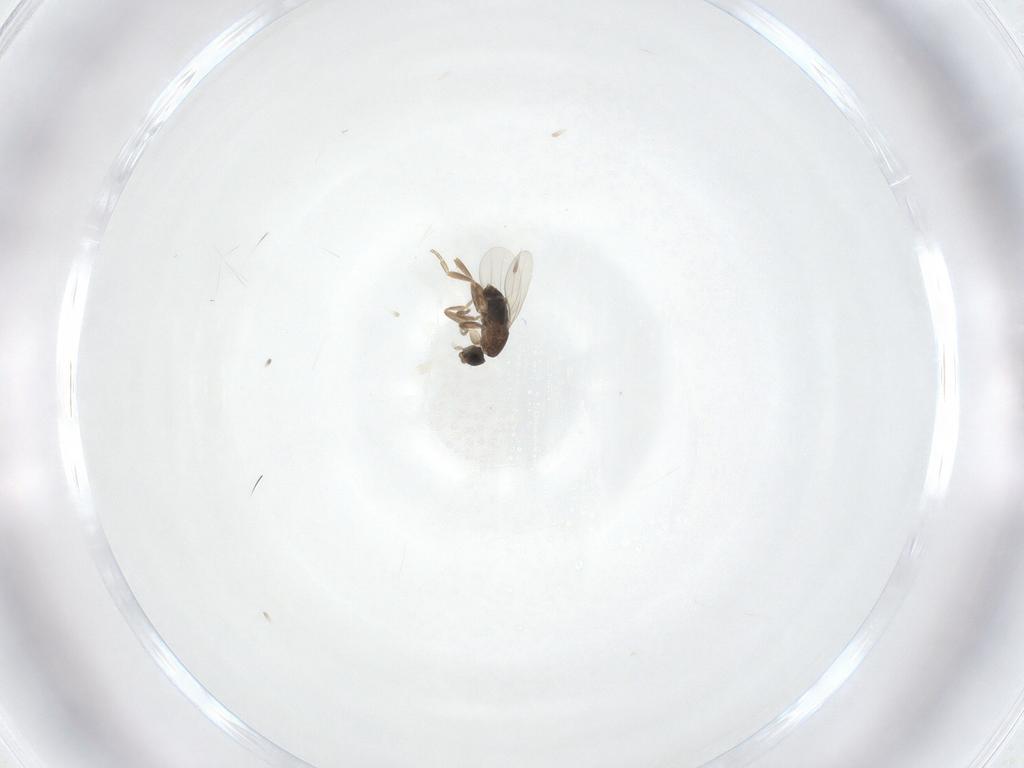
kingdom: Animalia
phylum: Arthropoda
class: Insecta
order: Diptera
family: Phoridae
